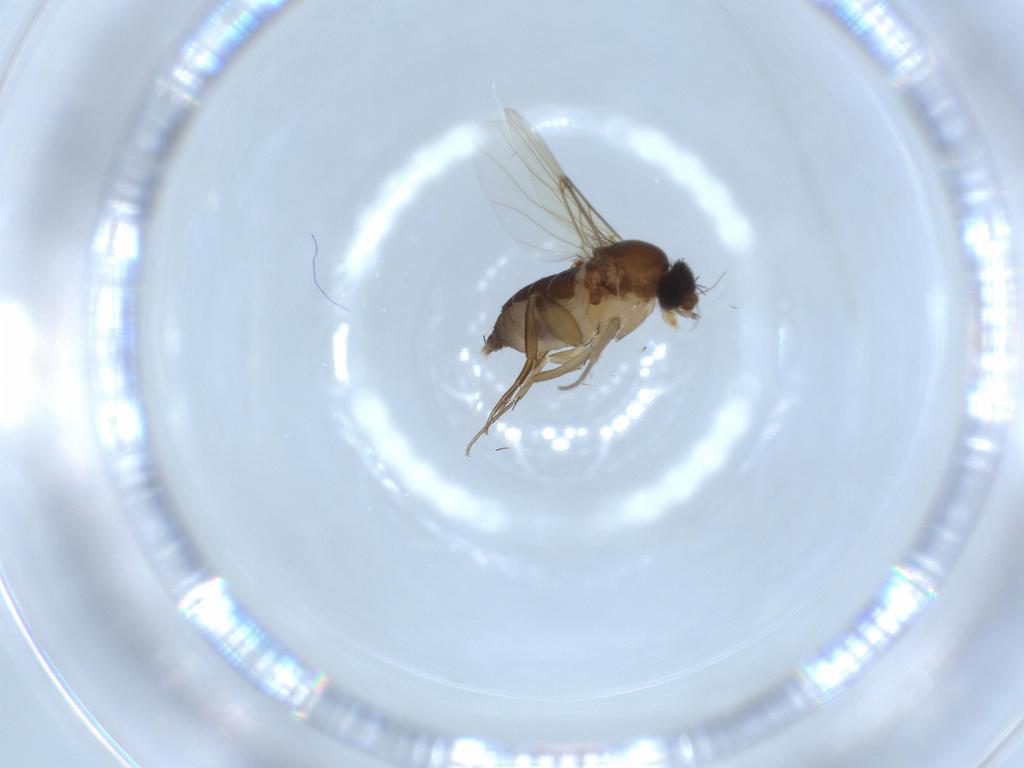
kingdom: Animalia
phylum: Arthropoda
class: Insecta
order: Diptera
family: Phoridae
